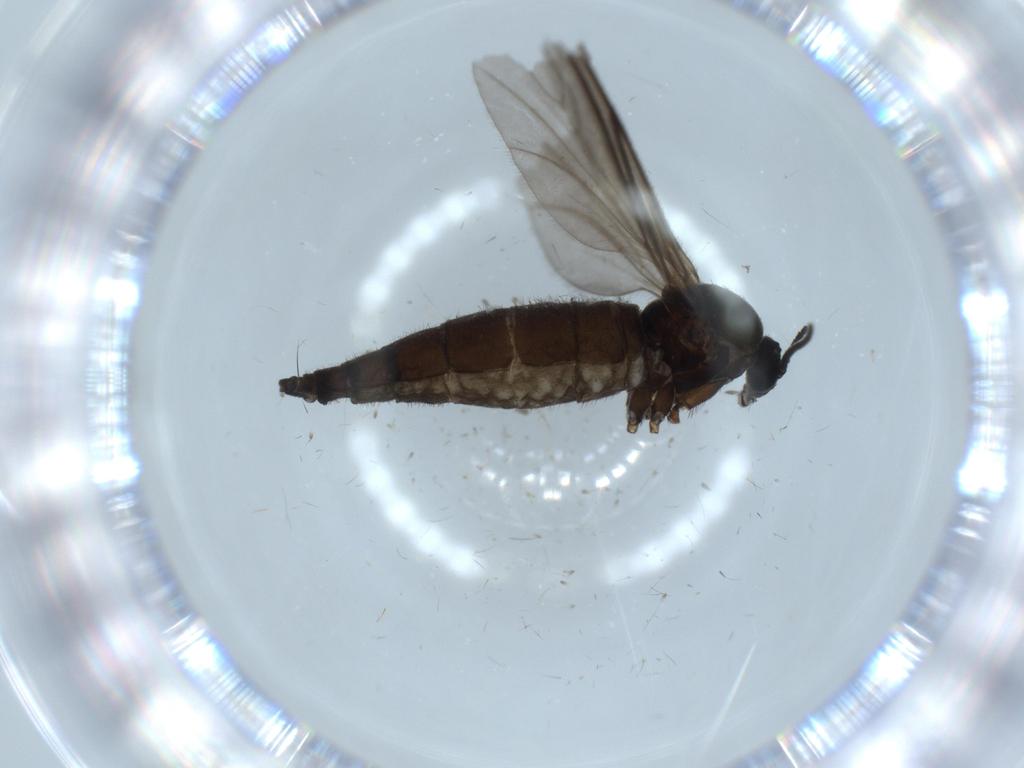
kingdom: Animalia
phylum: Arthropoda
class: Insecta
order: Diptera
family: Sciaridae
